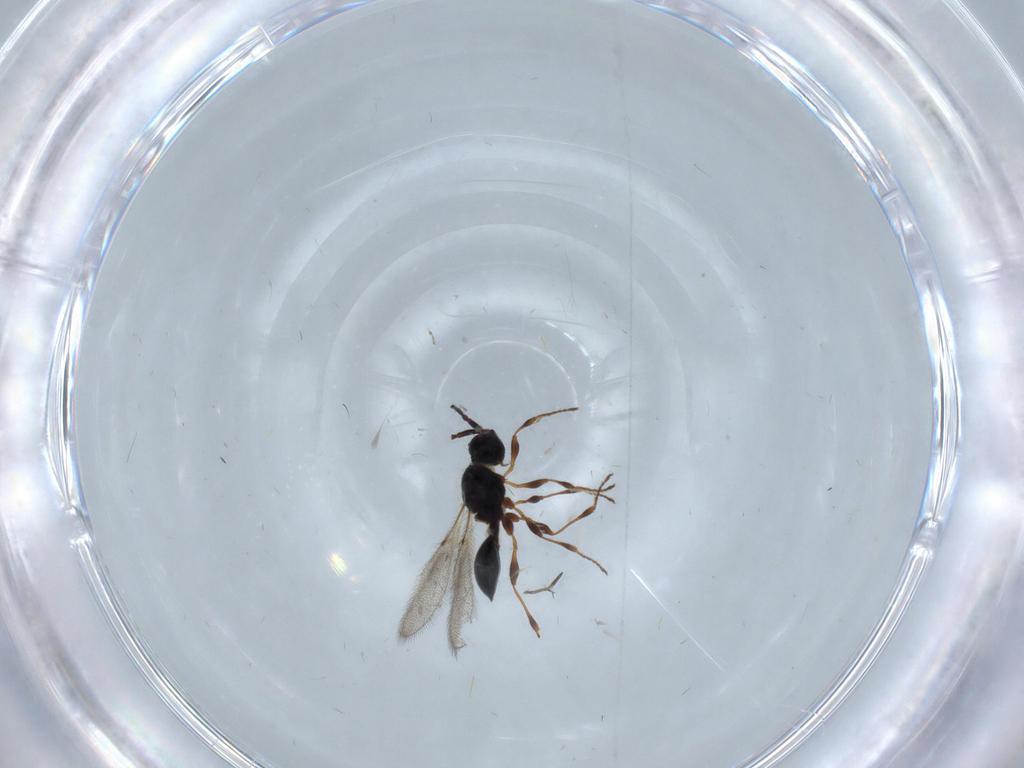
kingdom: Animalia
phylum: Arthropoda
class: Insecta
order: Hymenoptera
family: Diapriidae
